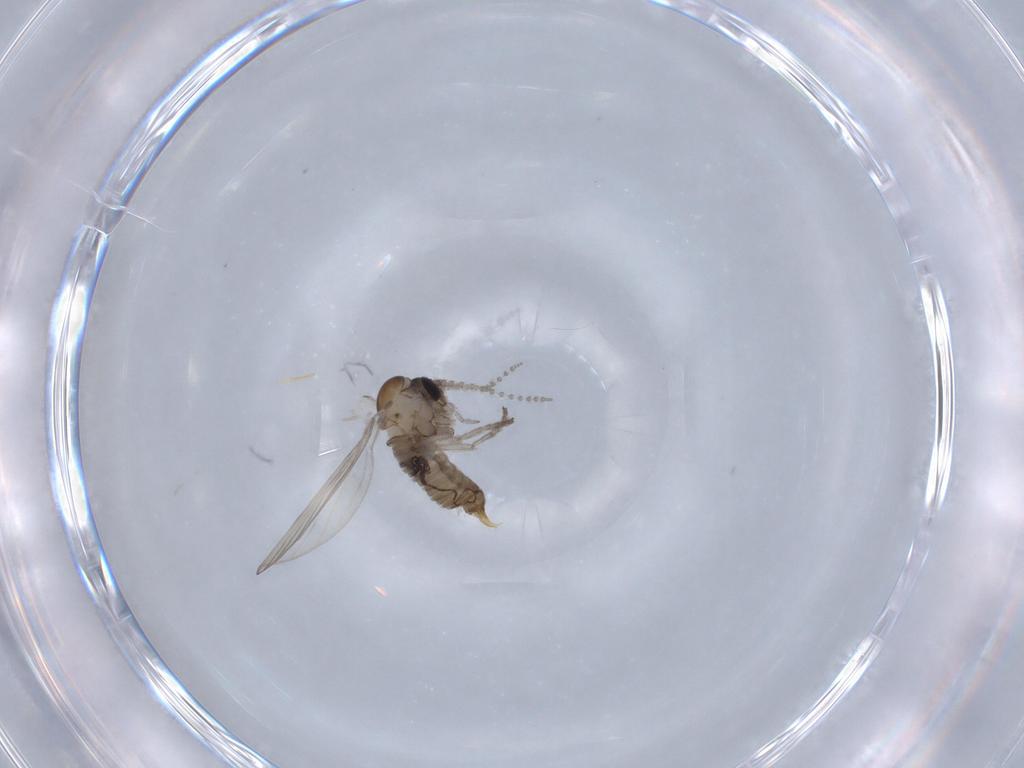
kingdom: Animalia
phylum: Arthropoda
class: Insecta
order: Diptera
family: Psychodidae
